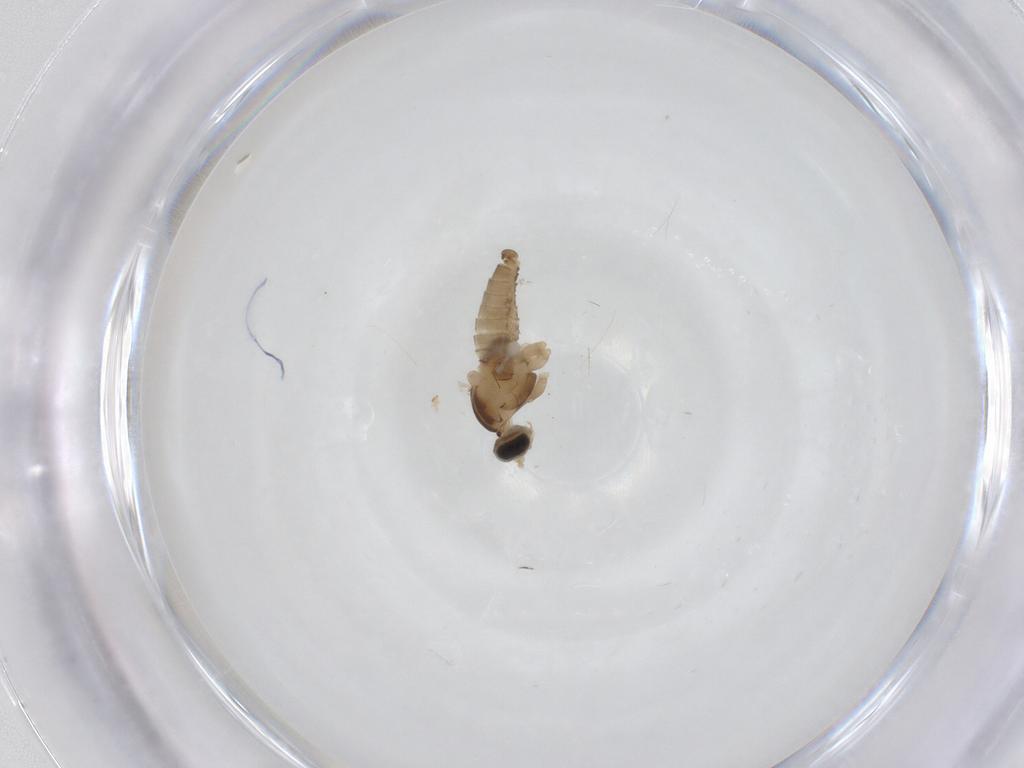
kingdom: Animalia
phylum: Arthropoda
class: Insecta
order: Diptera
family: Cecidomyiidae
